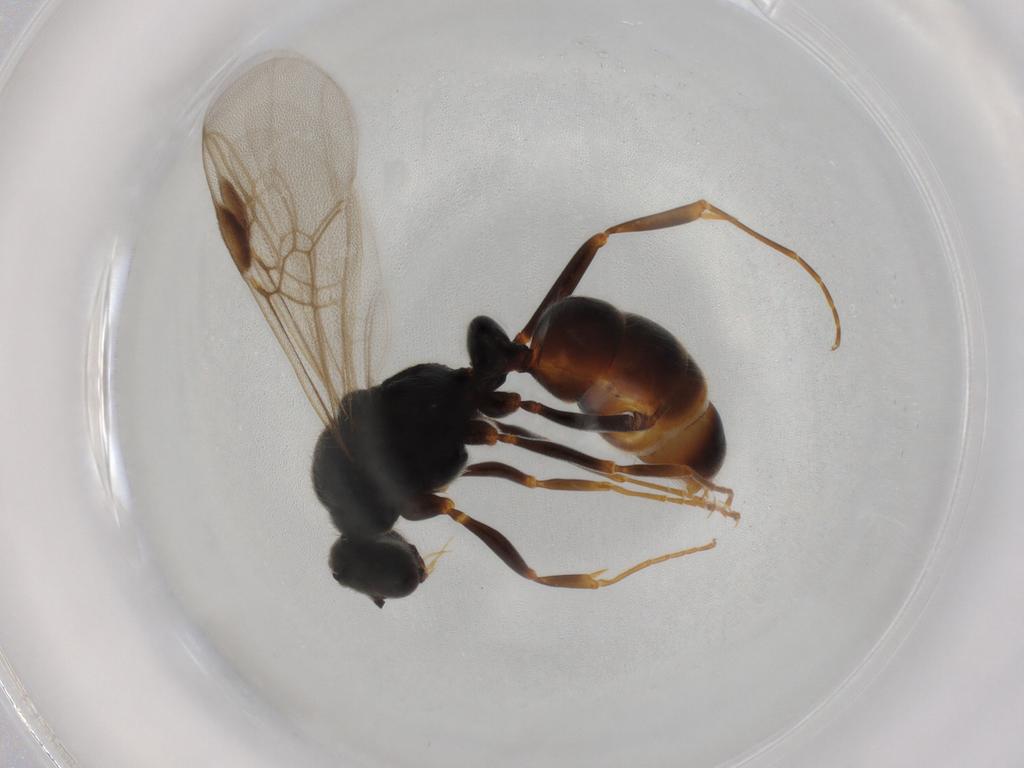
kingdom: Animalia
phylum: Arthropoda
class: Insecta
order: Hymenoptera
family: Formicidae
